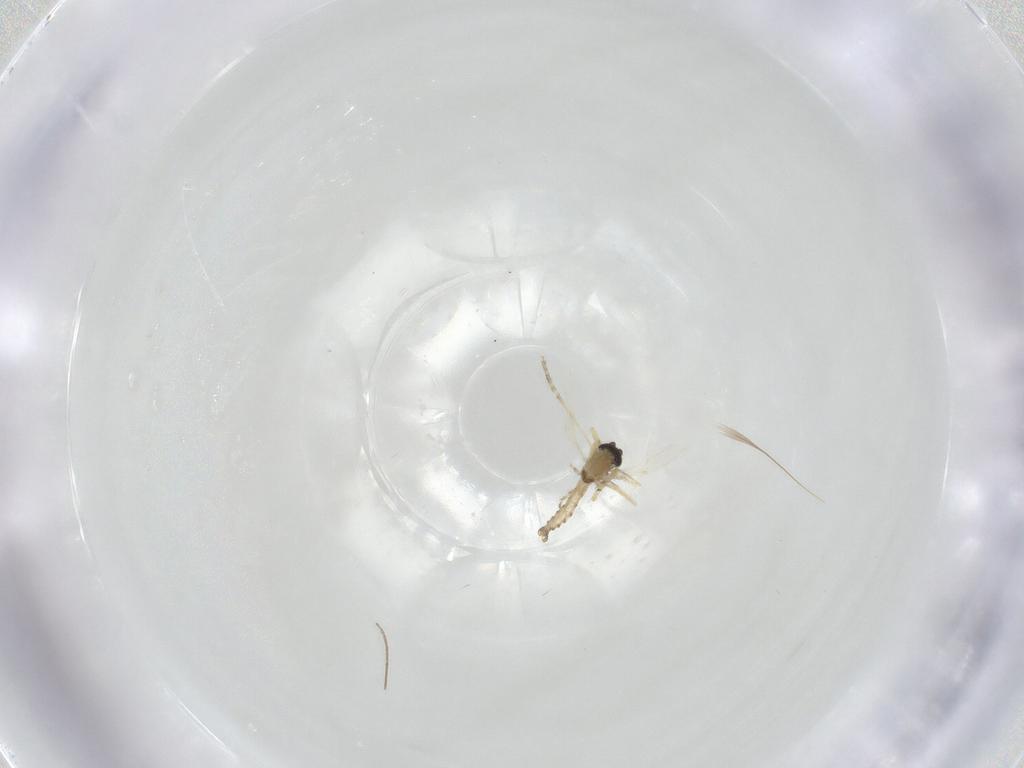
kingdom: Animalia
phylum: Arthropoda
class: Insecta
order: Diptera
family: Ceratopogonidae
